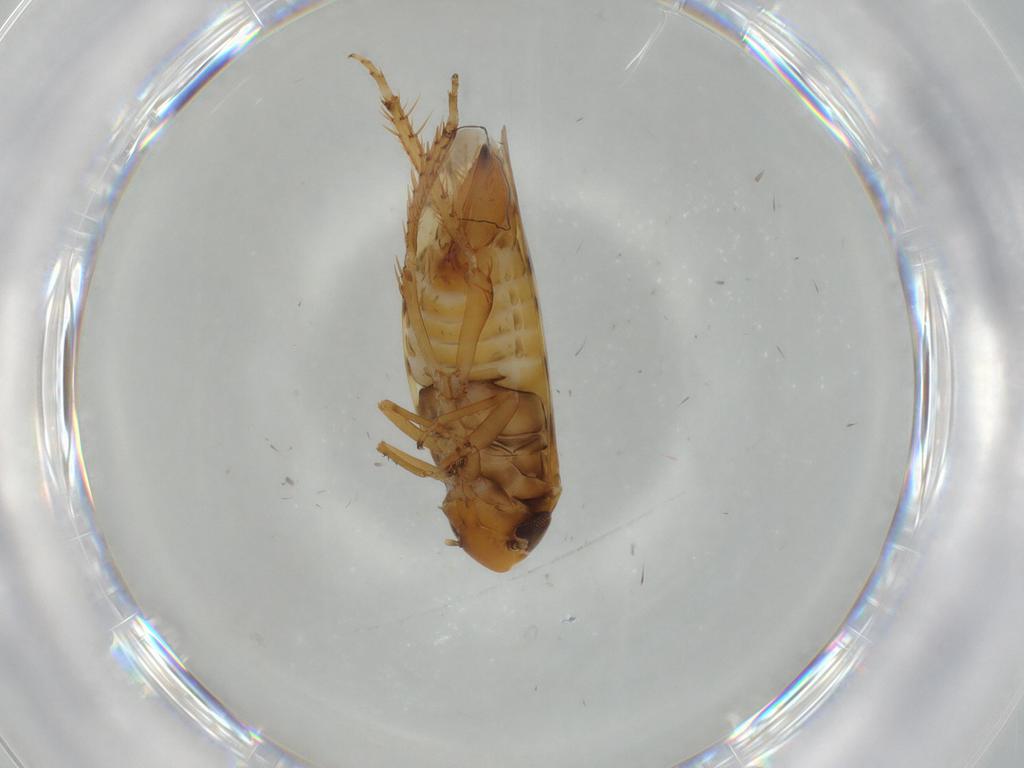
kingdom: Animalia
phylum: Arthropoda
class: Insecta
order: Hemiptera
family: Cicadellidae
